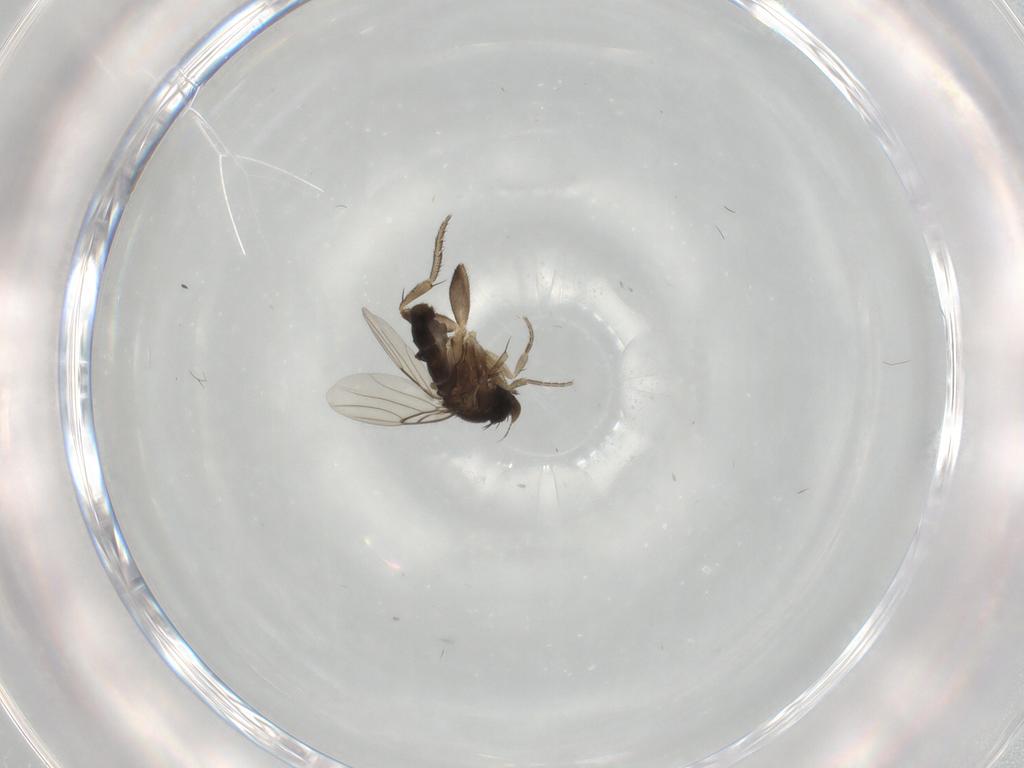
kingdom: Animalia
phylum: Arthropoda
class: Insecta
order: Diptera
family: Phoridae
